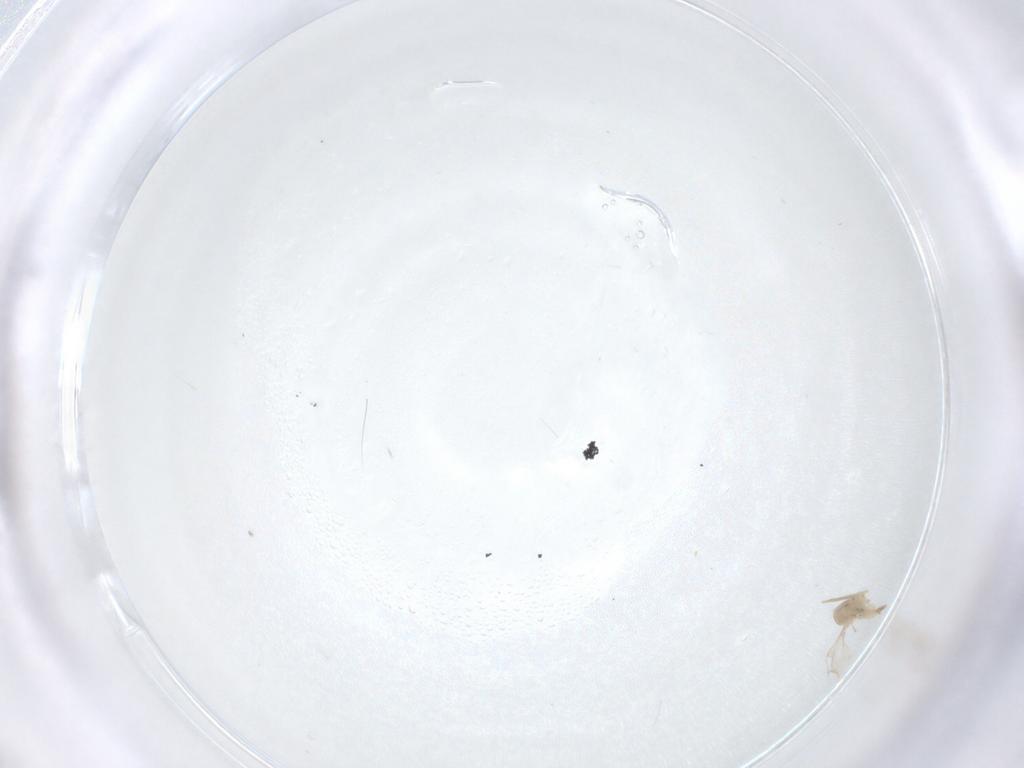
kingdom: Animalia
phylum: Arthropoda
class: Insecta
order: Diptera
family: Cecidomyiidae
